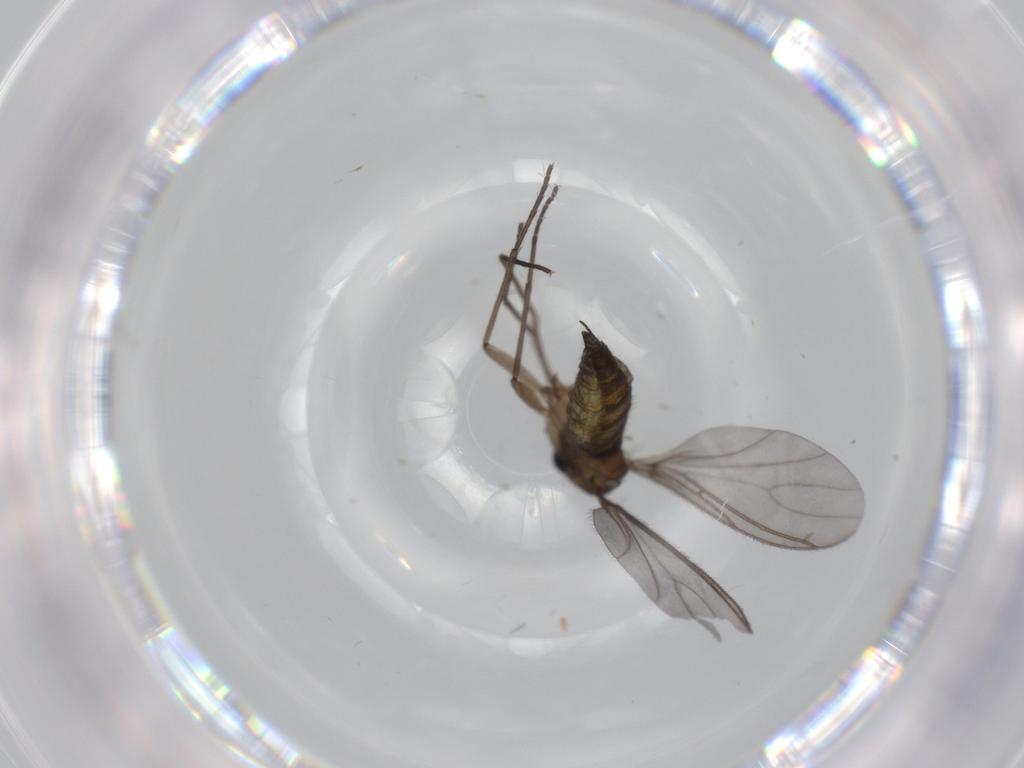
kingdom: Animalia
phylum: Arthropoda
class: Insecta
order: Diptera
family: Sciaridae
